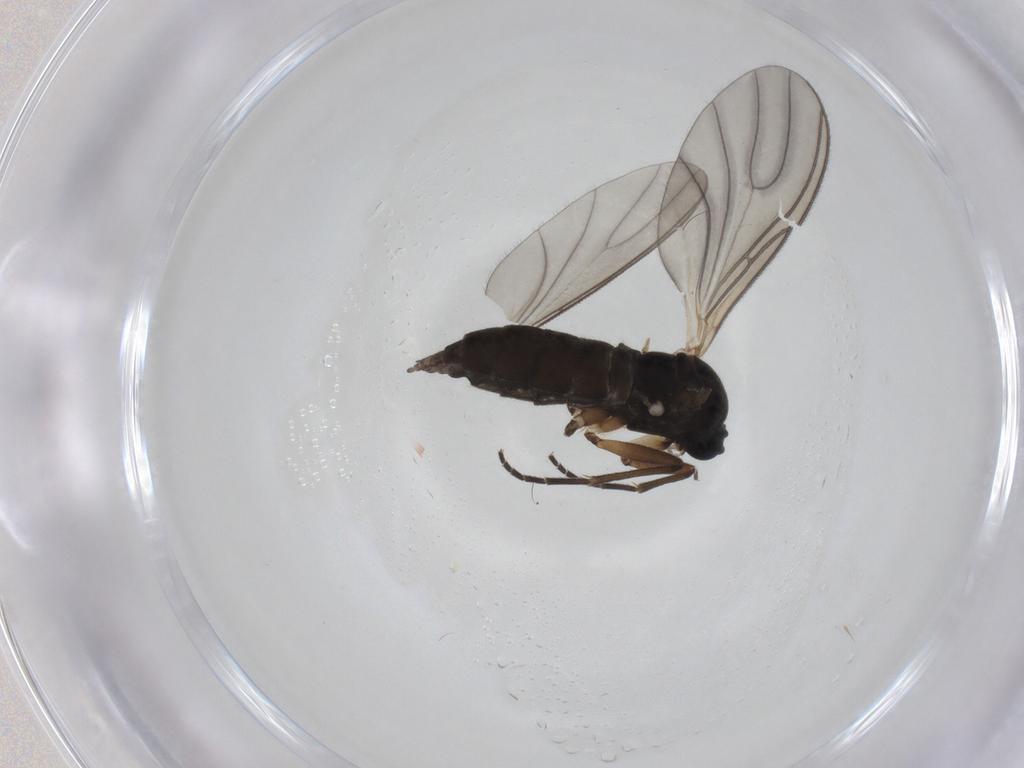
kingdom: Animalia
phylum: Arthropoda
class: Insecta
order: Diptera
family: Sciaridae
